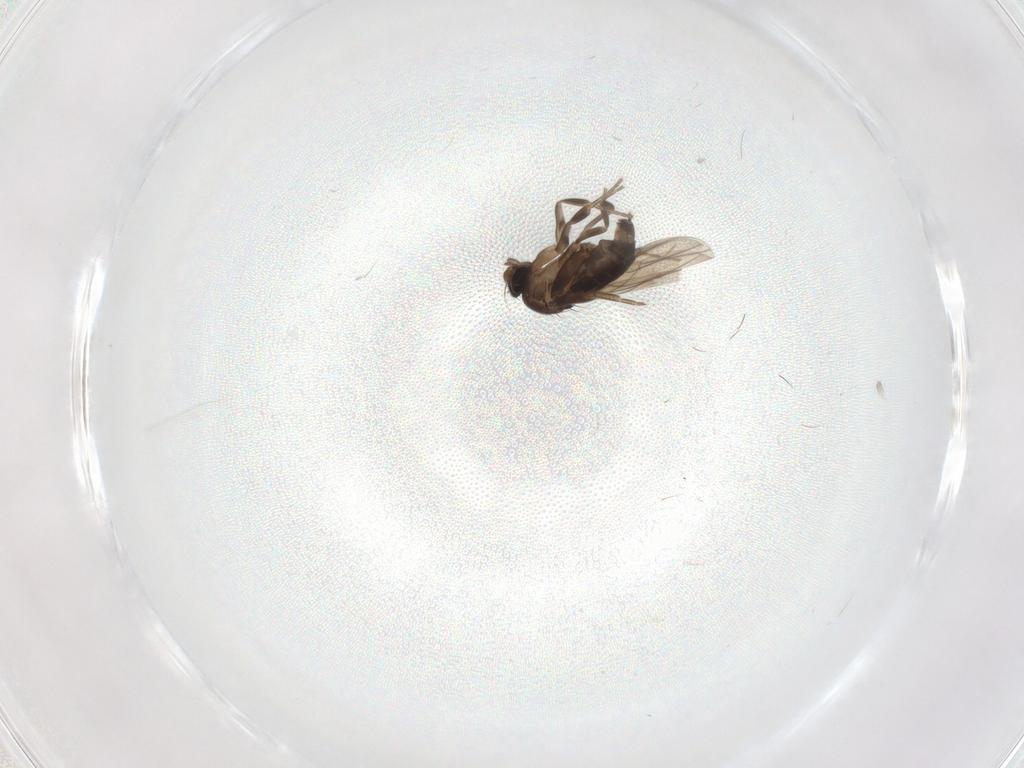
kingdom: Animalia
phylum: Arthropoda
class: Insecta
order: Diptera
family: Phoridae
